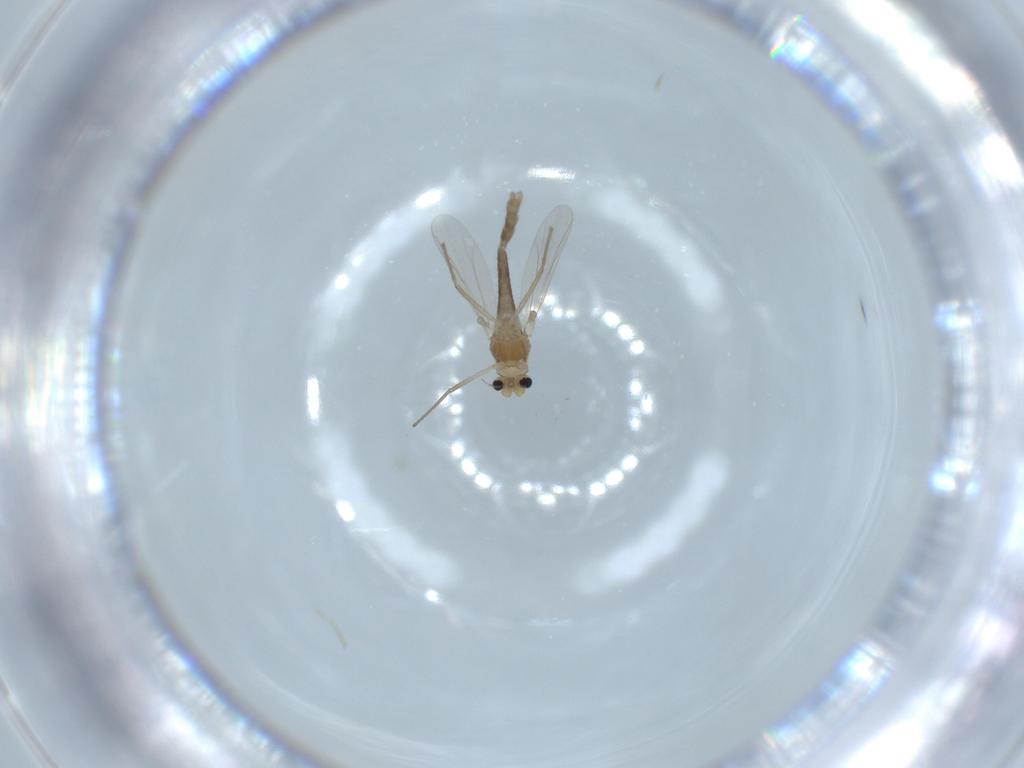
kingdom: Animalia
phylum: Arthropoda
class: Insecta
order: Diptera
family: Chironomidae
